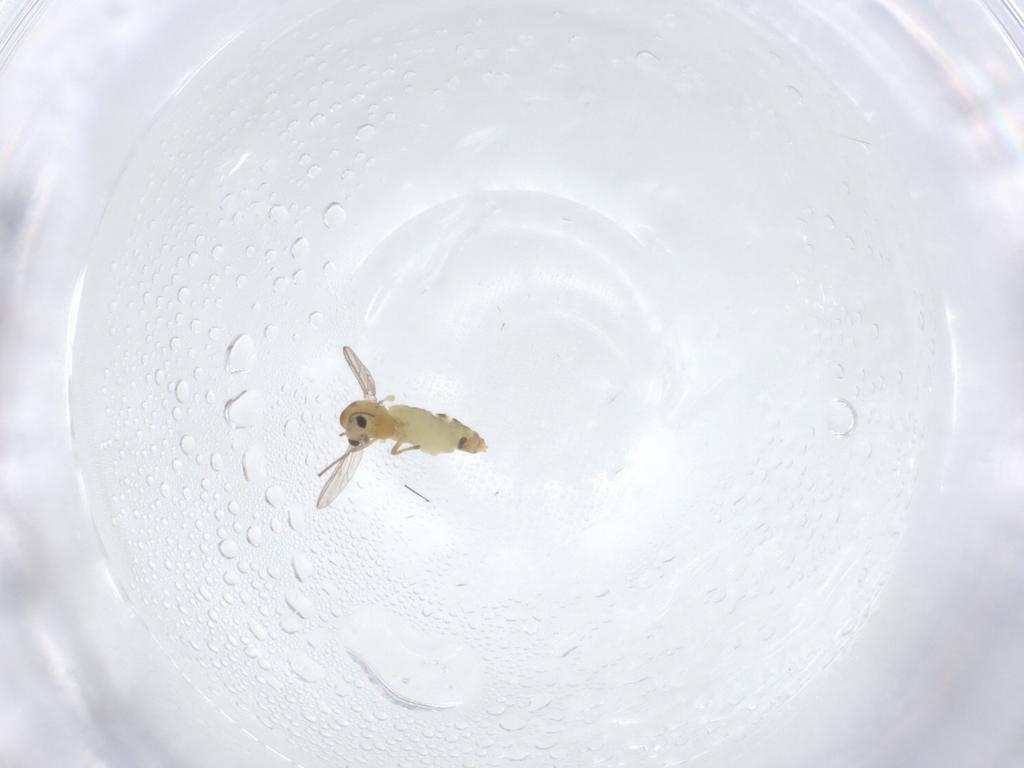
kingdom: Animalia
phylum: Arthropoda
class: Insecta
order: Diptera
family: Chironomidae
